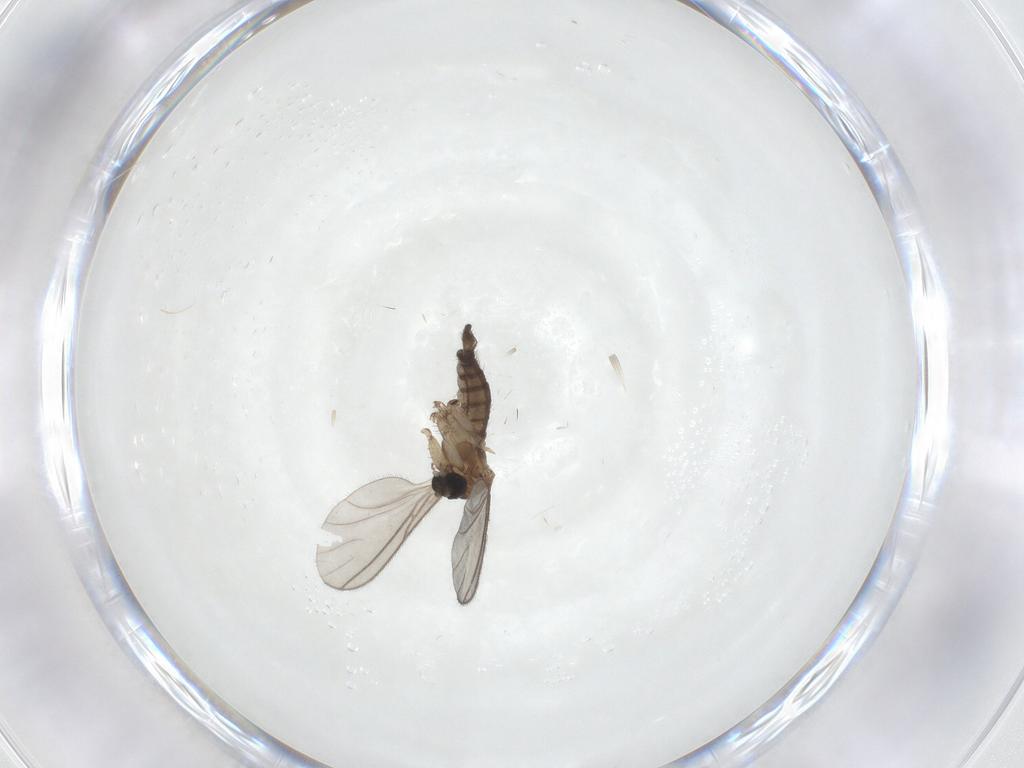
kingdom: Animalia
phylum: Arthropoda
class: Insecta
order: Diptera
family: Sciaridae
